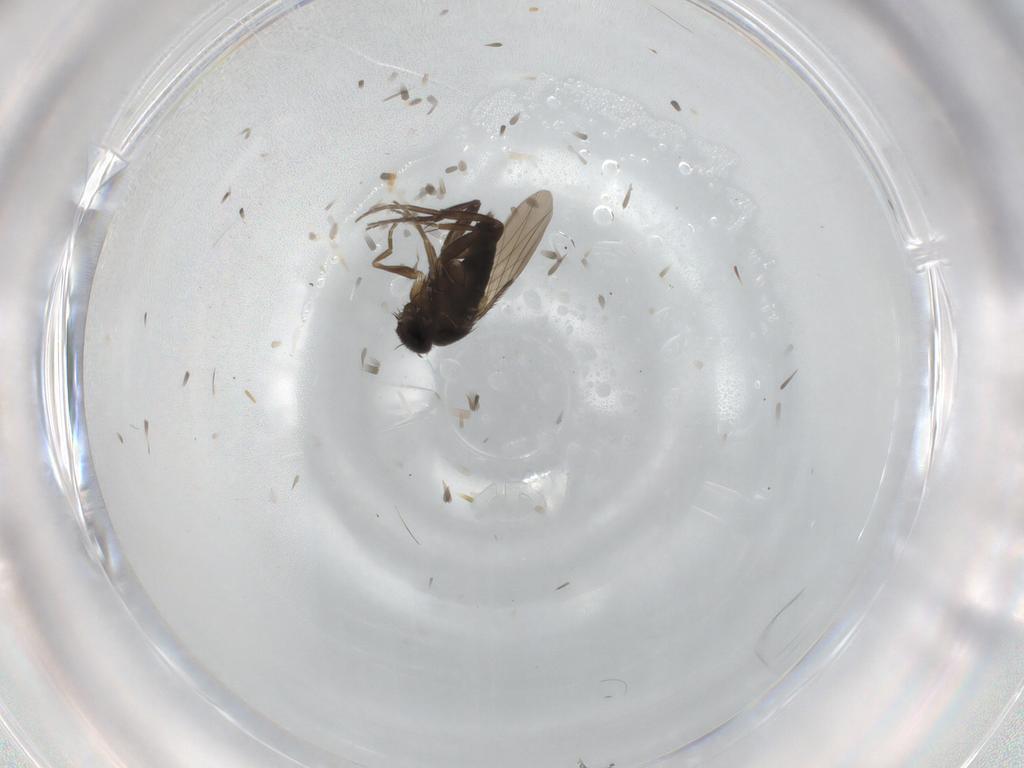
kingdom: Animalia
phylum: Arthropoda
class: Insecta
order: Diptera
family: Phoridae
